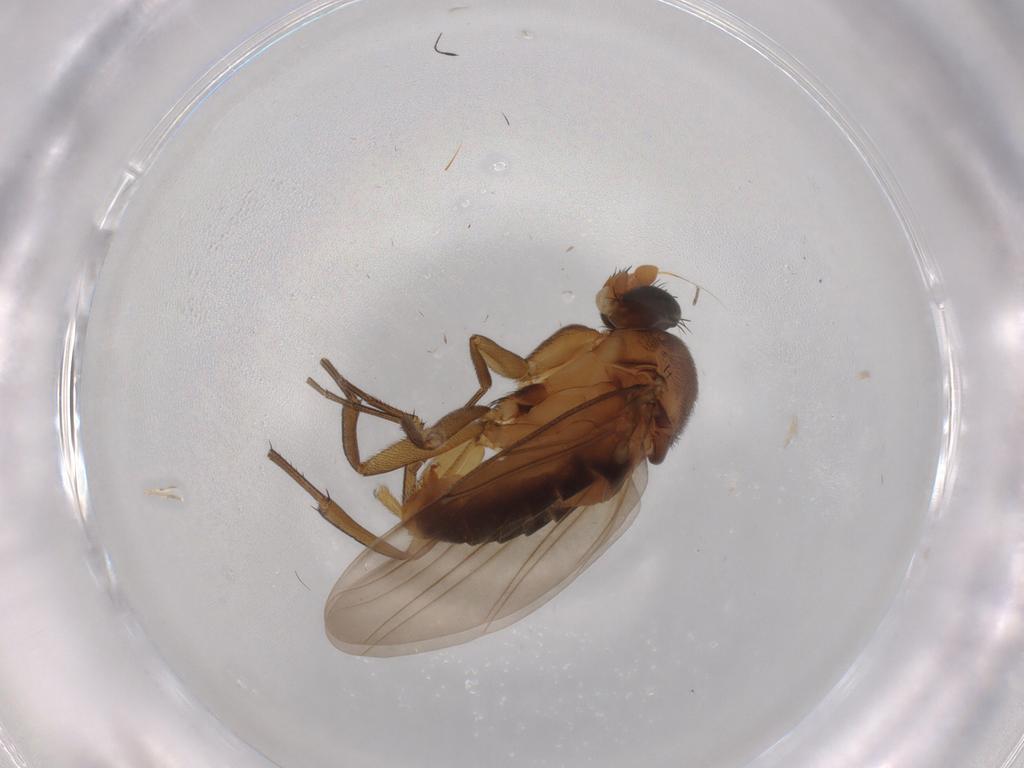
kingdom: Animalia
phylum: Arthropoda
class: Insecta
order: Diptera
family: Phoridae
